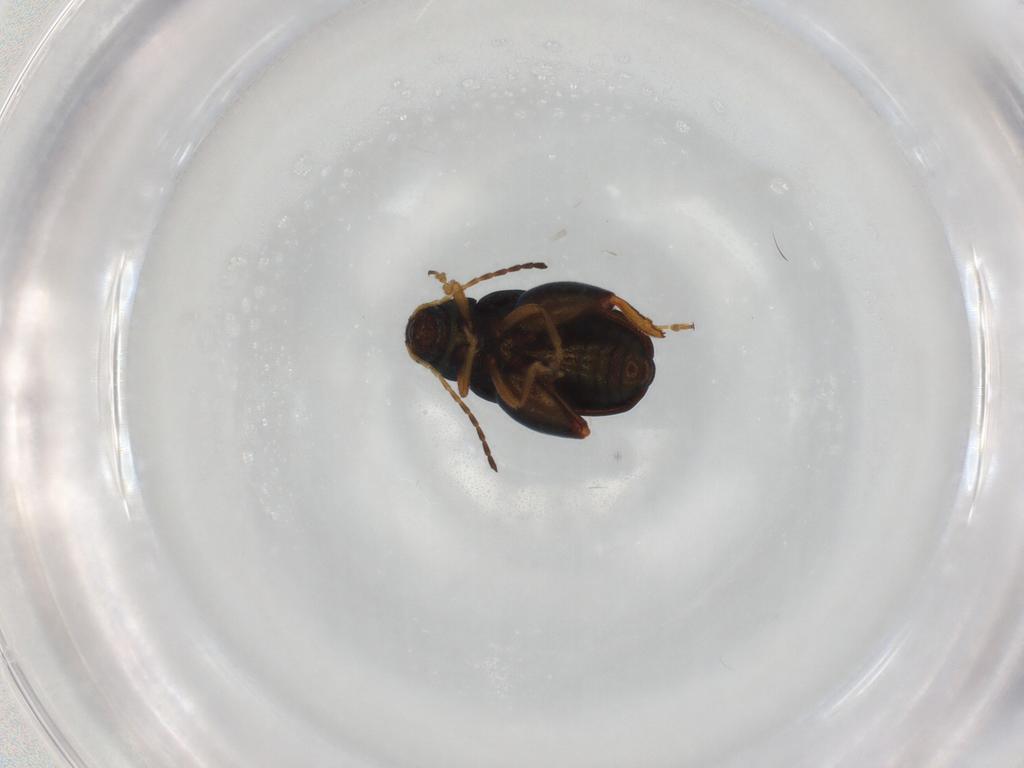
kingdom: Animalia
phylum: Arthropoda
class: Insecta
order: Coleoptera
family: Chrysomelidae
